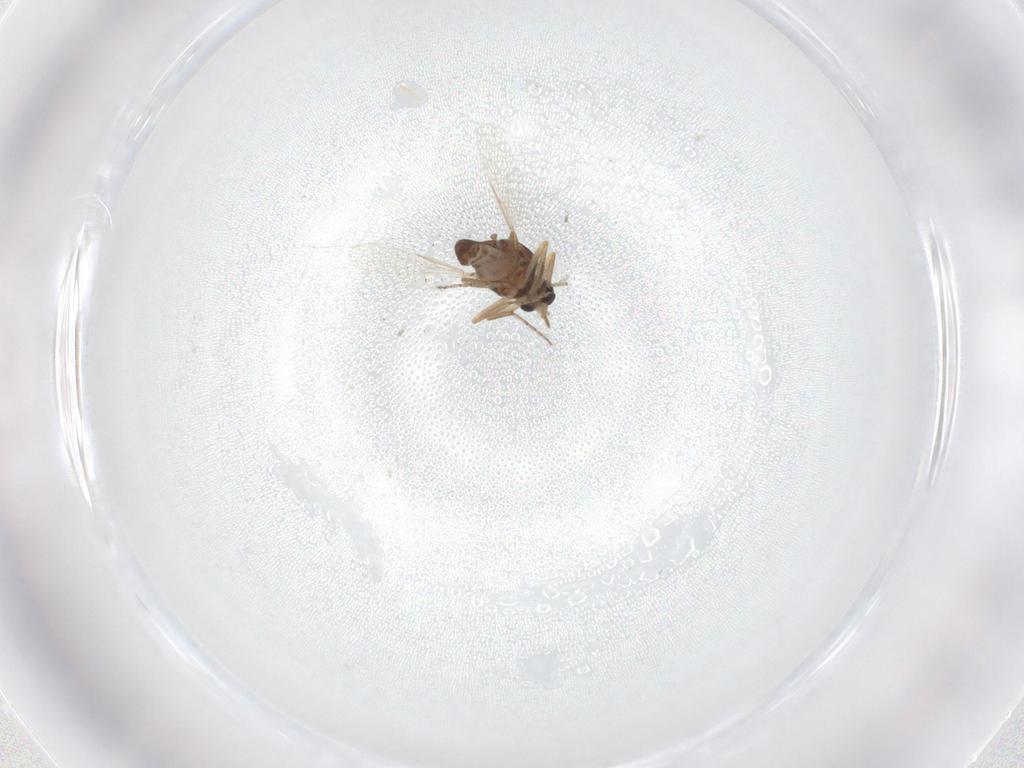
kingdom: Animalia
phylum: Arthropoda
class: Insecta
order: Diptera
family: Ceratopogonidae
